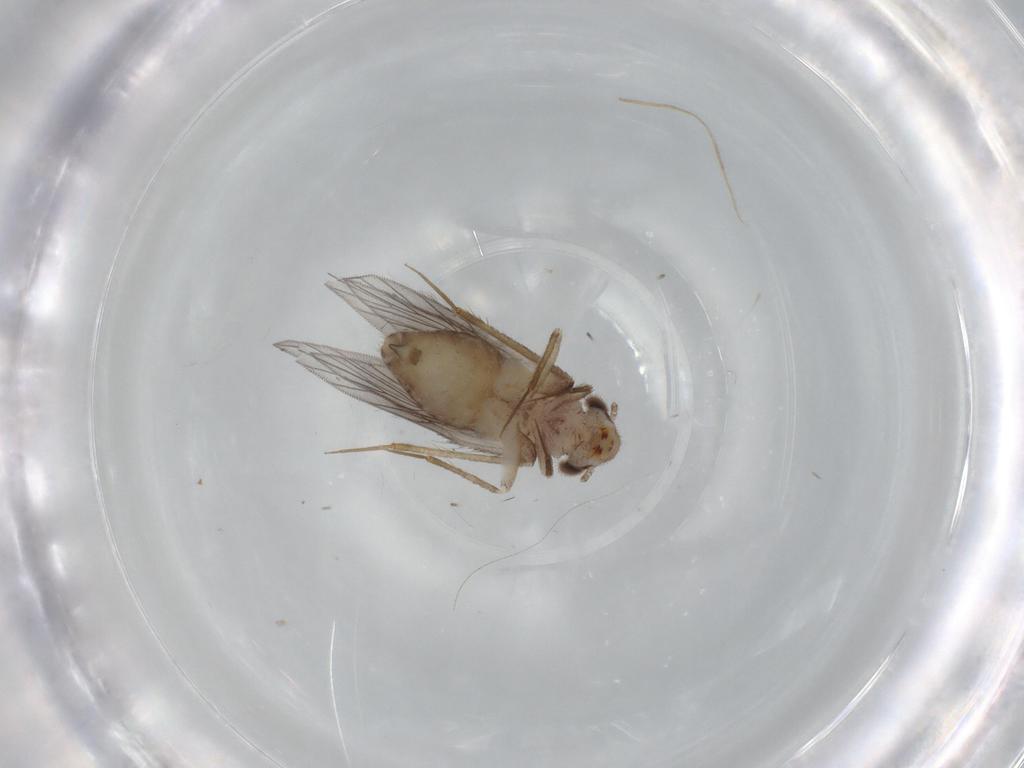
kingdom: Animalia
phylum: Arthropoda
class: Insecta
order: Psocodea
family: Lepidopsocidae
